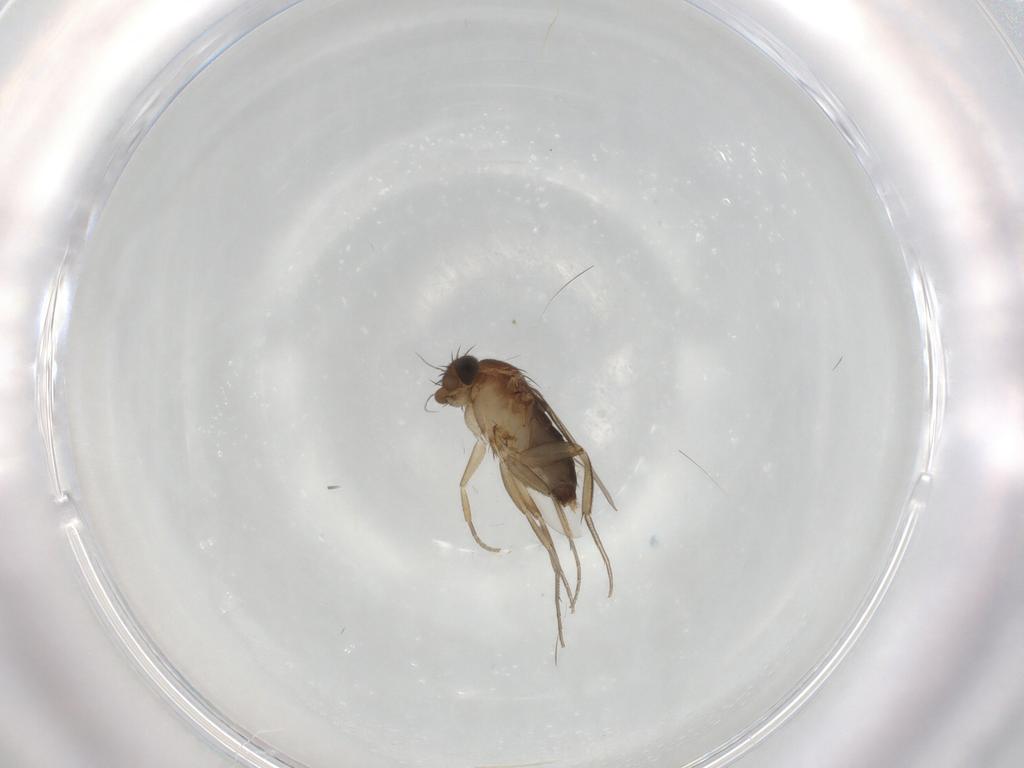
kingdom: Animalia
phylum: Arthropoda
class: Insecta
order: Diptera
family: Phoridae
